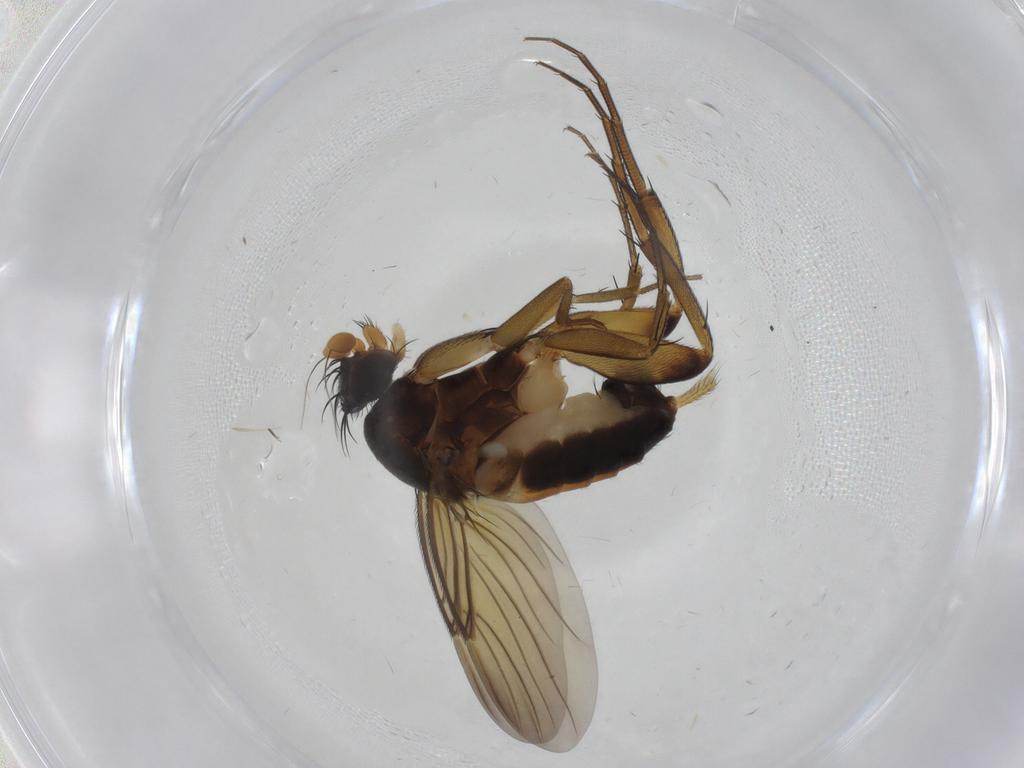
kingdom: Animalia
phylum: Arthropoda
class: Insecta
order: Diptera
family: Phoridae
